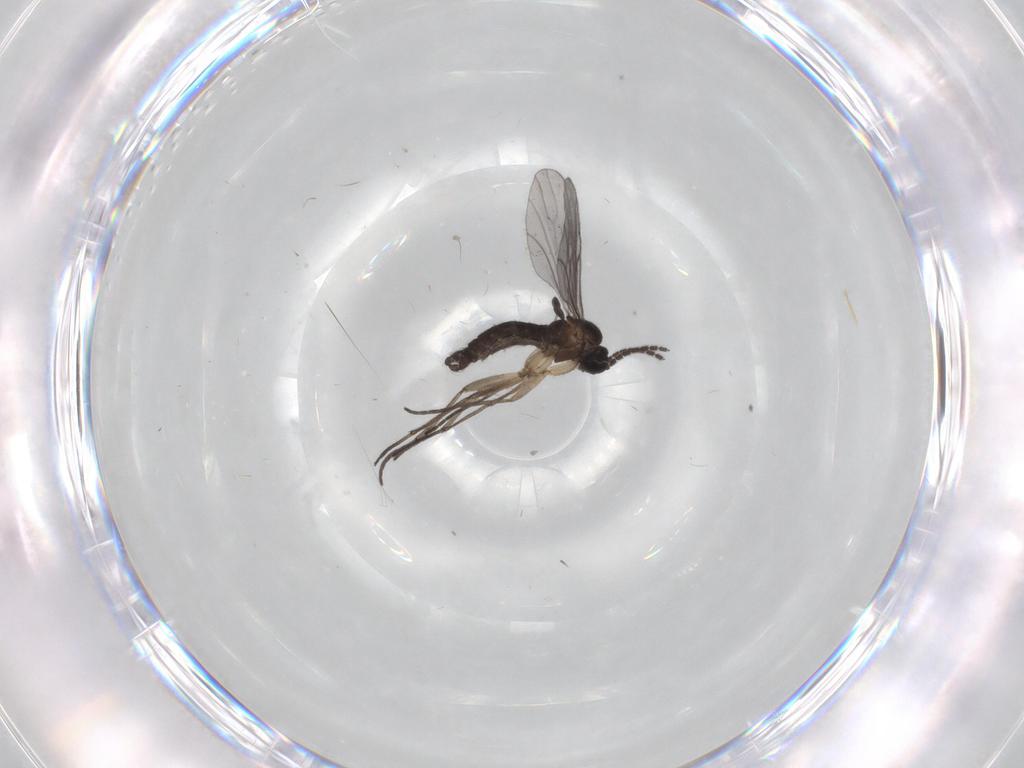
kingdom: Animalia
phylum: Arthropoda
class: Insecta
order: Diptera
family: Sciaridae
